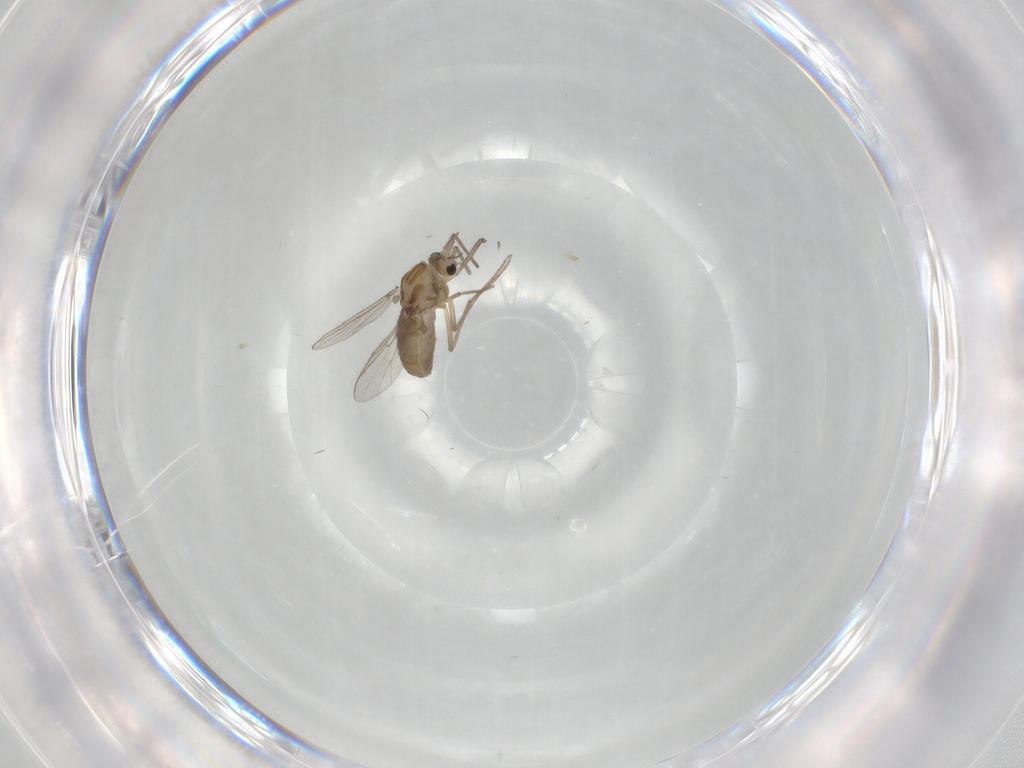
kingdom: Animalia
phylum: Arthropoda
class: Insecta
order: Diptera
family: Chironomidae
